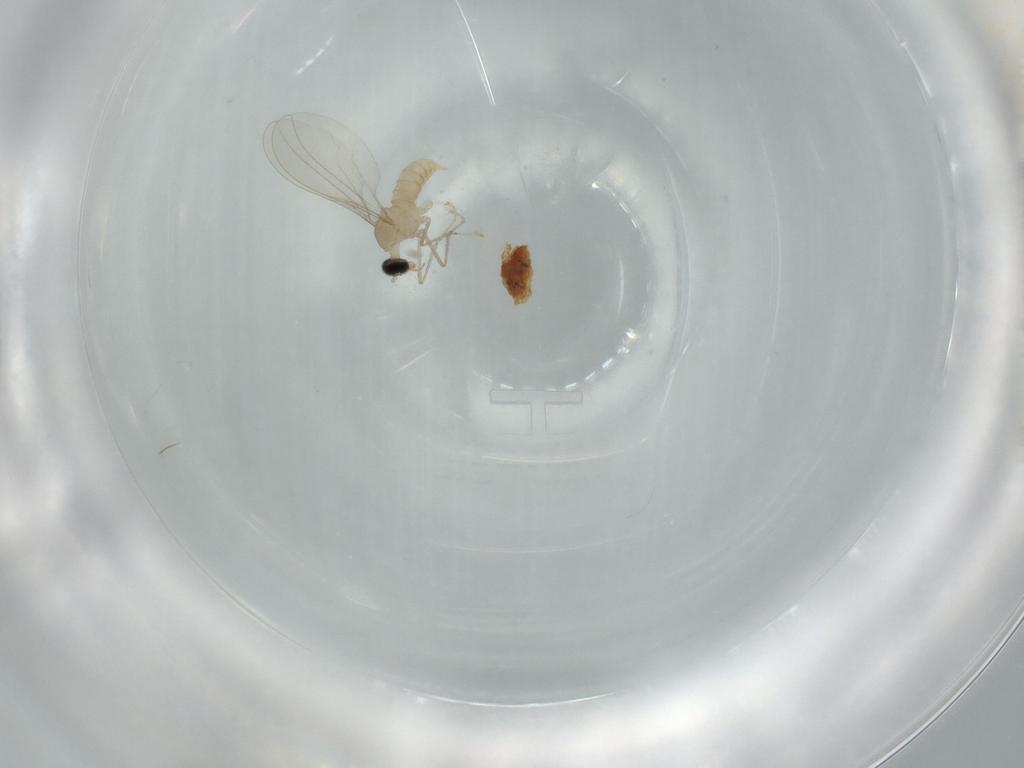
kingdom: Animalia
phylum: Arthropoda
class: Insecta
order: Diptera
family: Cecidomyiidae
